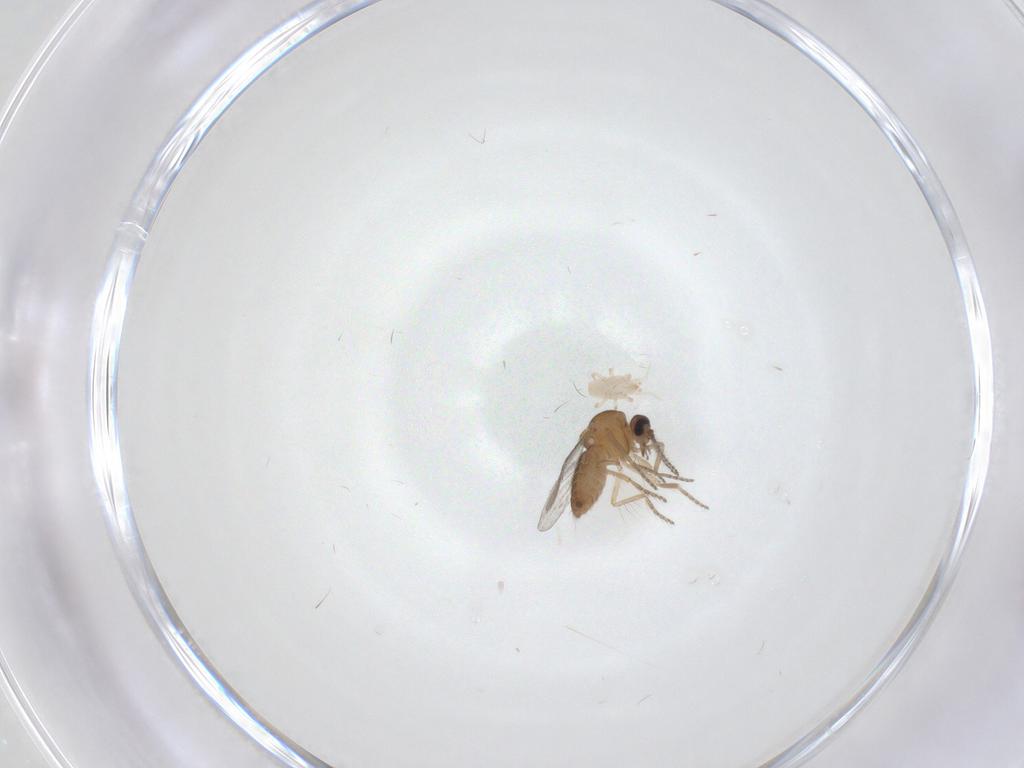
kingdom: Animalia
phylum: Arthropoda
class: Insecta
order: Diptera
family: Ceratopogonidae
